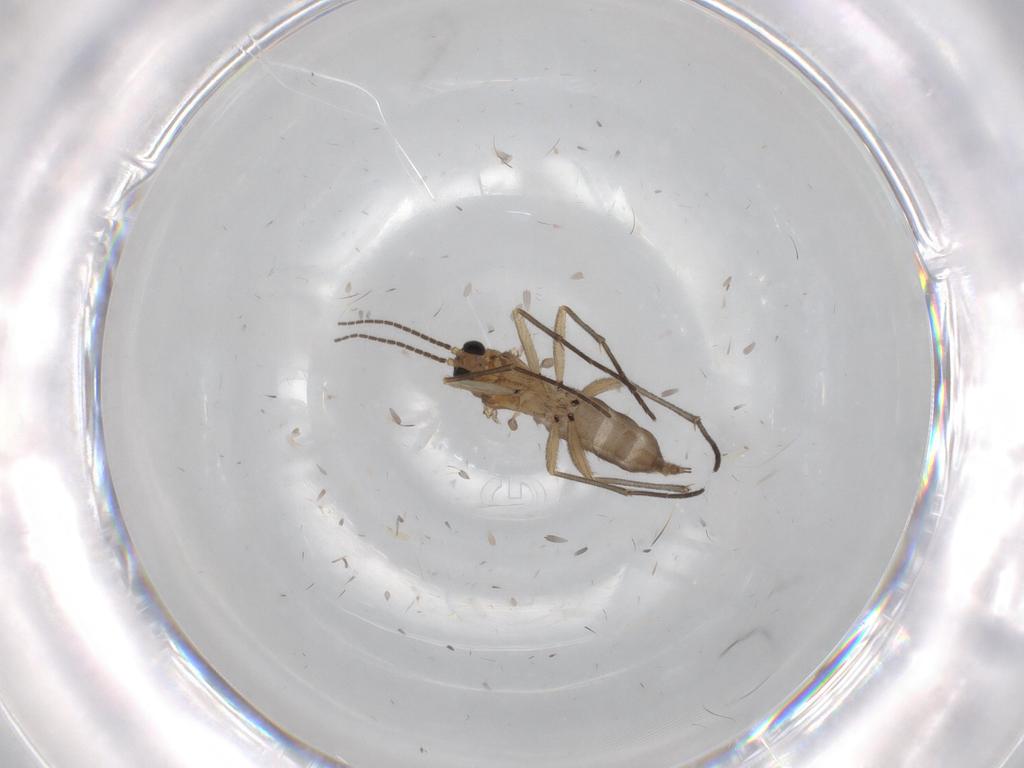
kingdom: Animalia
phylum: Arthropoda
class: Insecta
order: Diptera
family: Sciaridae
